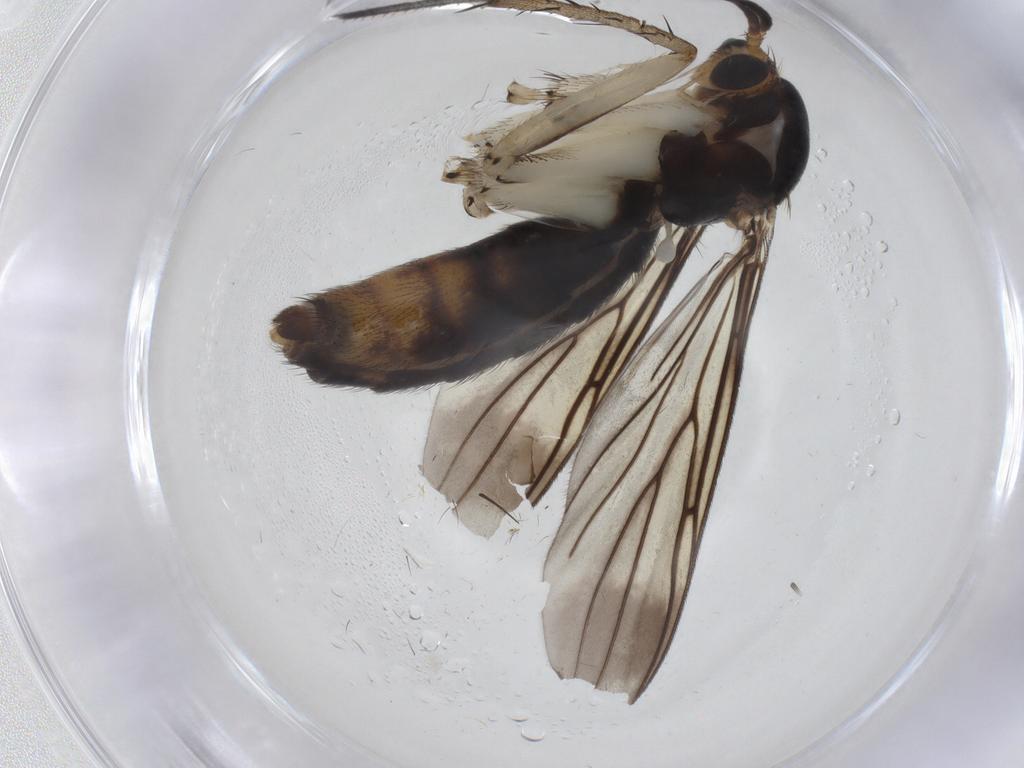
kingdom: Animalia
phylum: Arthropoda
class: Insecta
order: Diptera
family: Mycetophilidae
